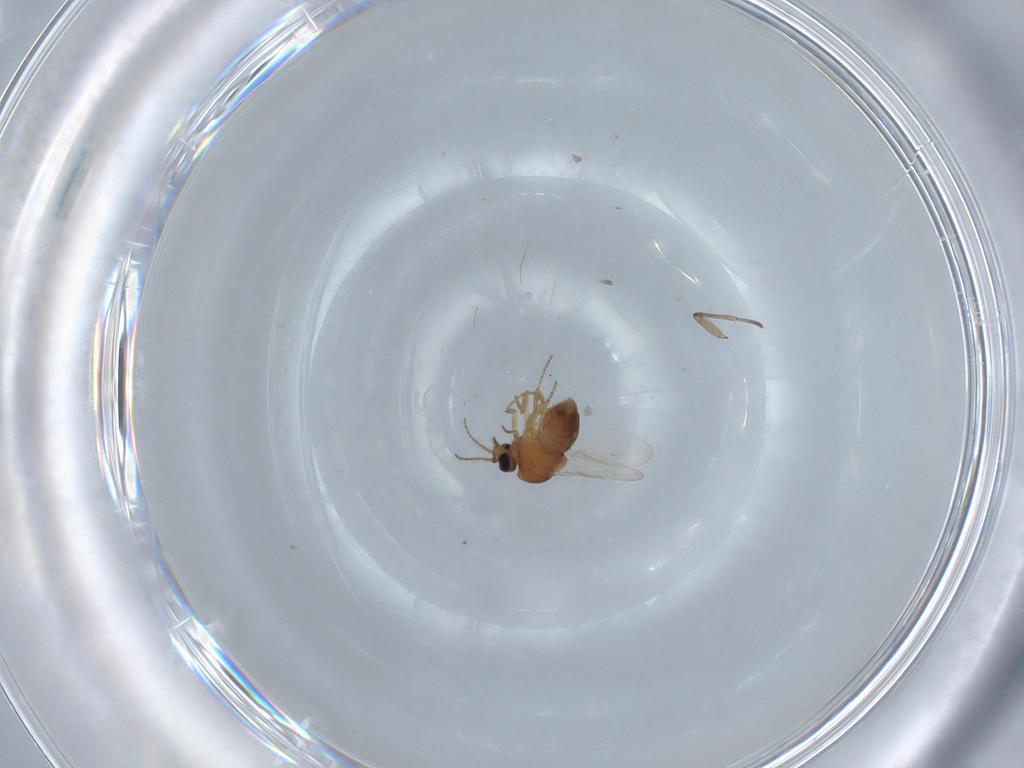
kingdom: Animalia
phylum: Arthropoda
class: Insecta
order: Diptera
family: Ceratopogonidae
